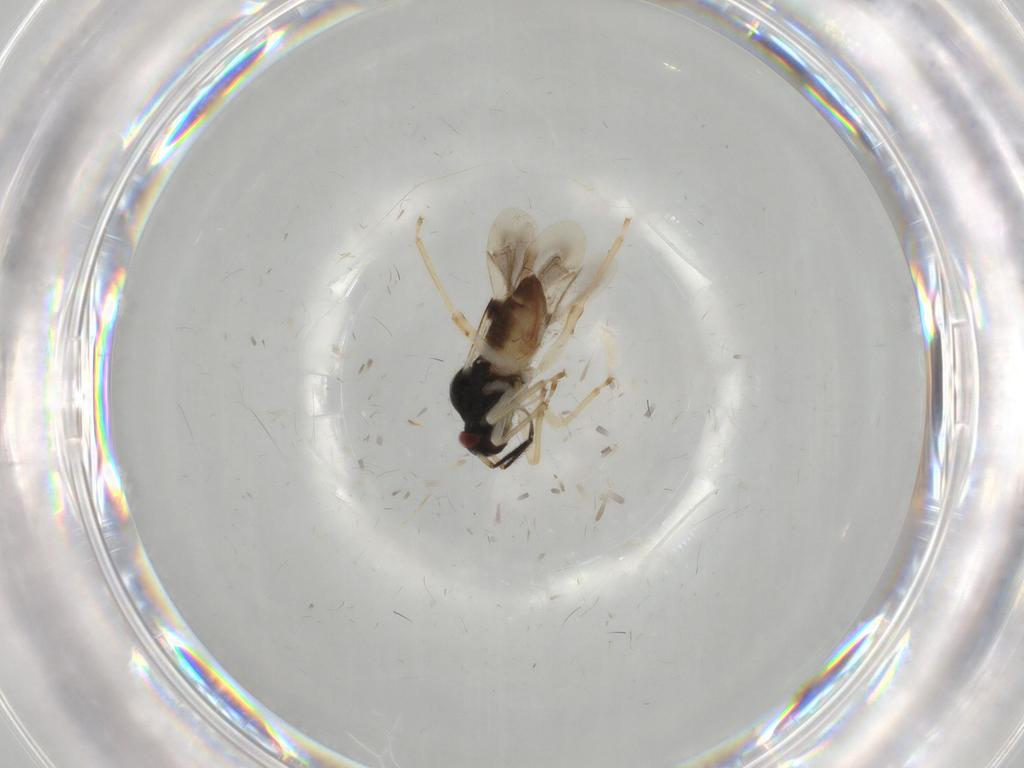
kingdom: Animalia
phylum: Arthropoda
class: Insecta
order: Hemiptera
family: Miridae
